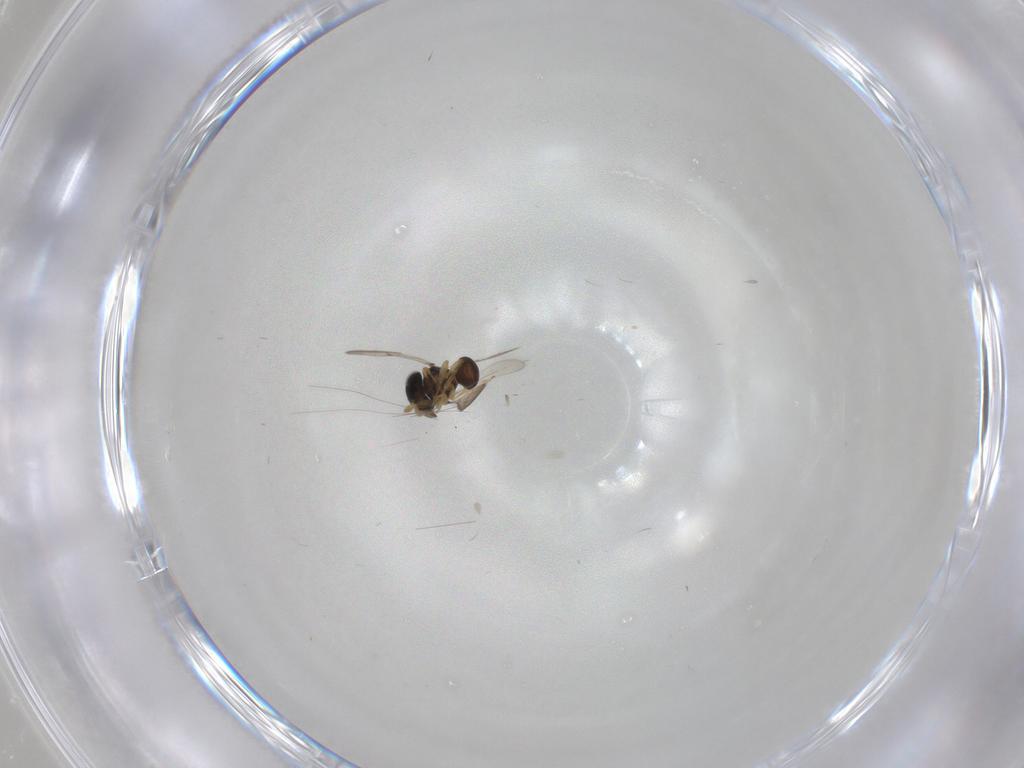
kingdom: Animalia
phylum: Arthropoda
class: Insecta
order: Hymenoptera
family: Scelionidae
